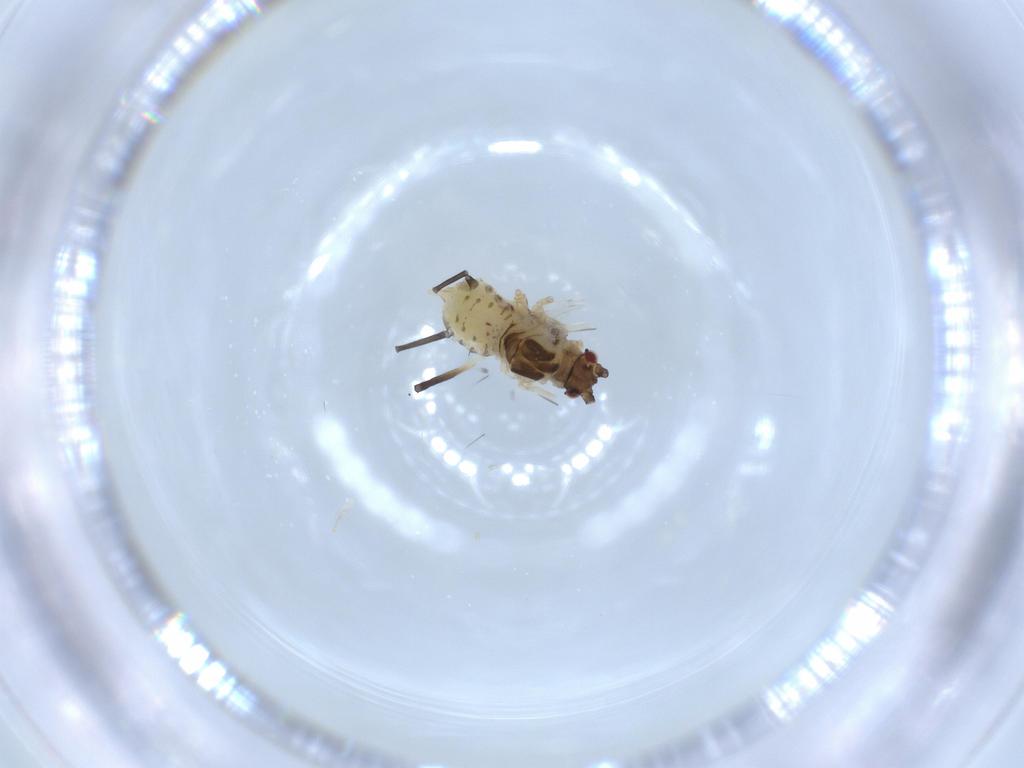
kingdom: Animalia
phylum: Arthropoda
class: Insecta
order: Hemiptera
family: Aphididae
